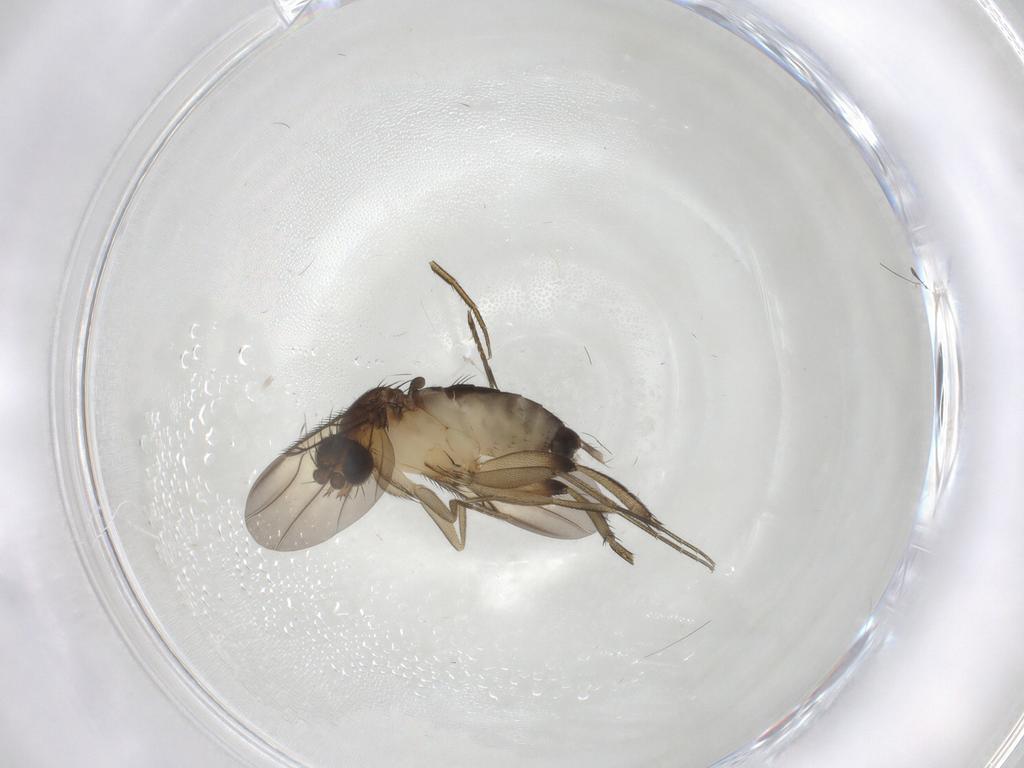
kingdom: Animalia
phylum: Arthropoda
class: Insecta
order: Diptera
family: Phoridae
